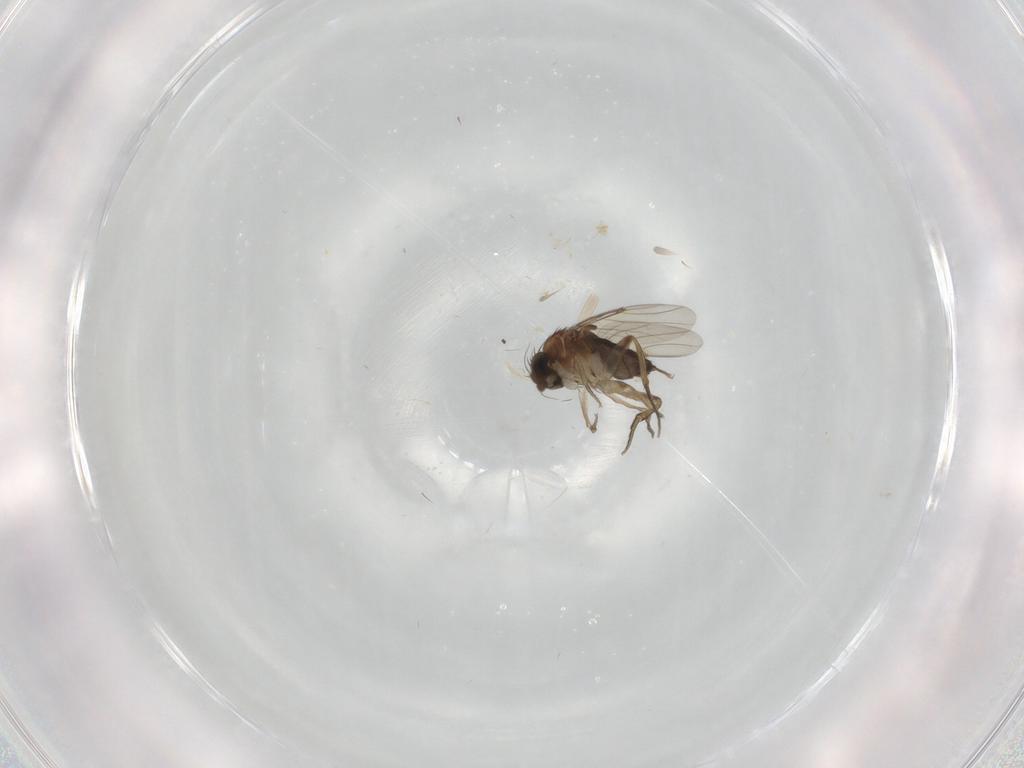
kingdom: Animalia
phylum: Arthropoda
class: Insecta
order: Diptera
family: Phoridae
